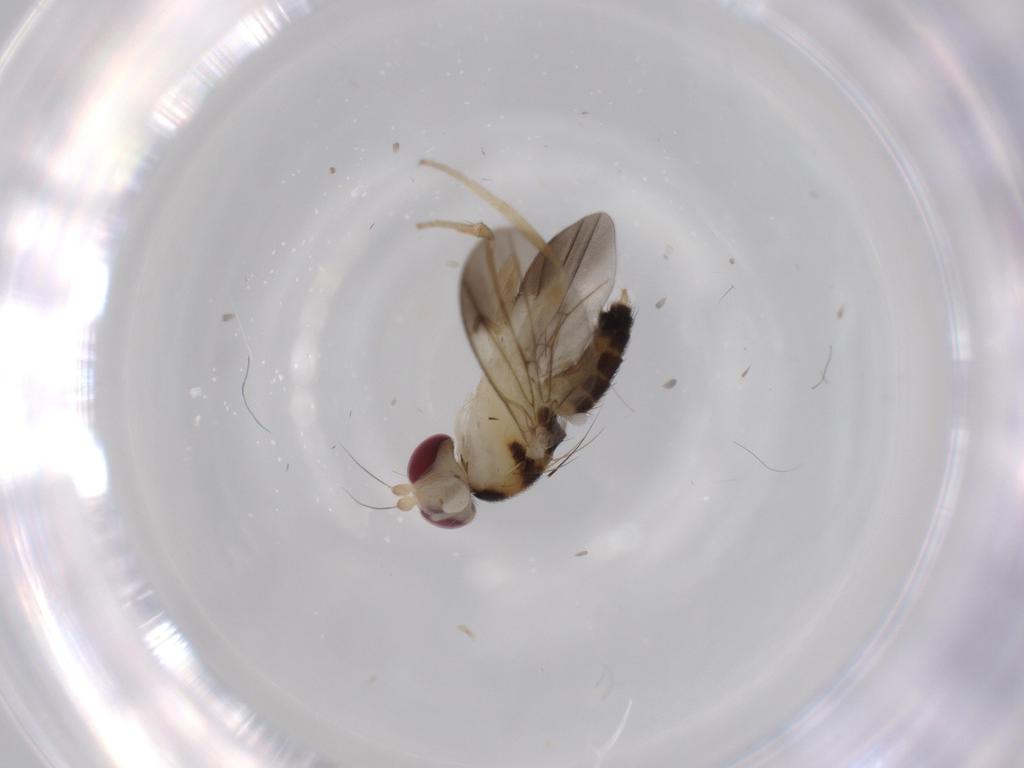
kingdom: Animalia
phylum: Arthropoda
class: Insecta
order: Diptera
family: Clusiidae
